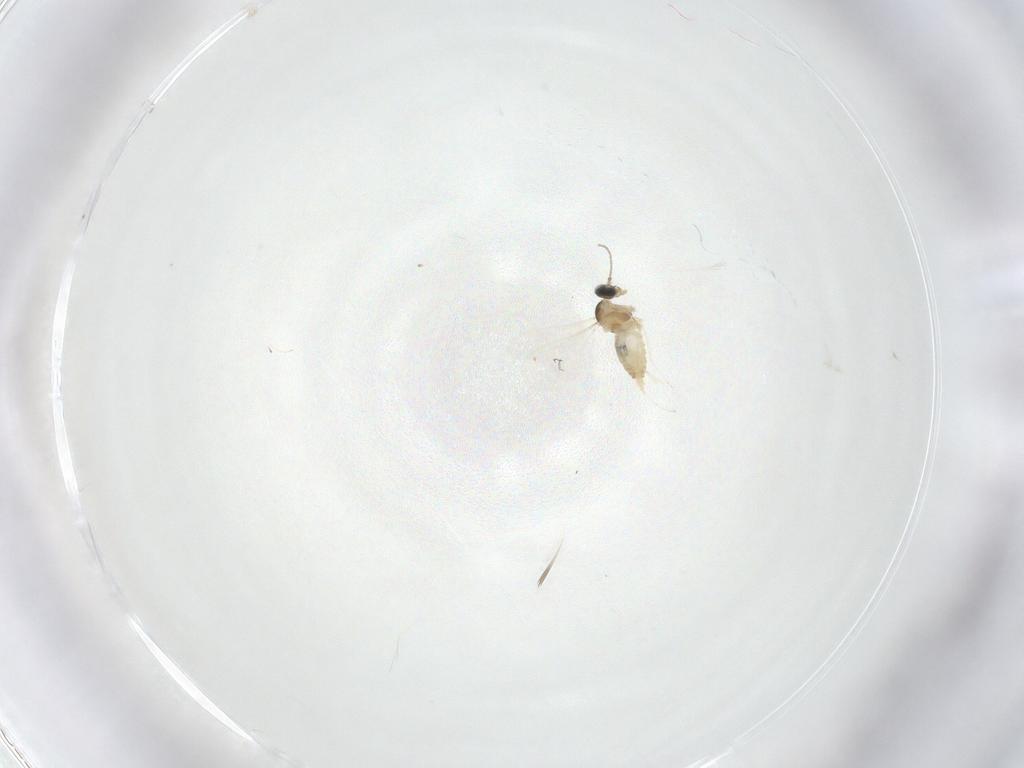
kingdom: Animalia
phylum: Arthropoda
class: Insecta
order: Diptera
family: Cecidomyiidae
